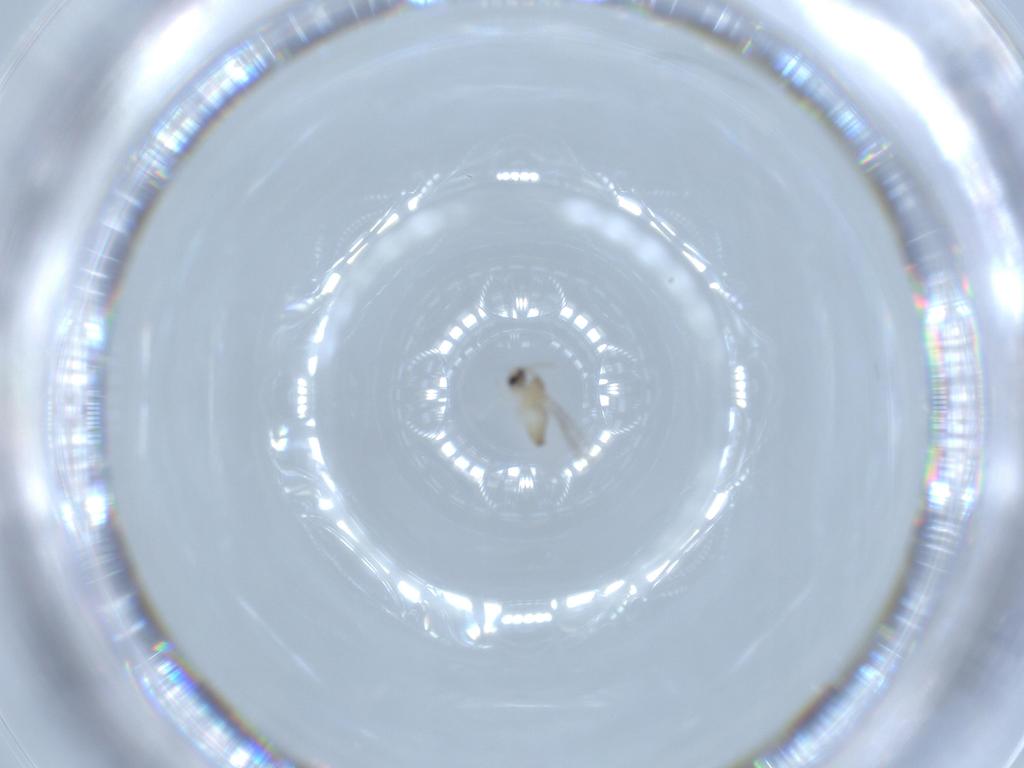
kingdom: Animalia
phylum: Arthropoda
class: Insecta
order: Diptera
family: Cecidomyiidae
